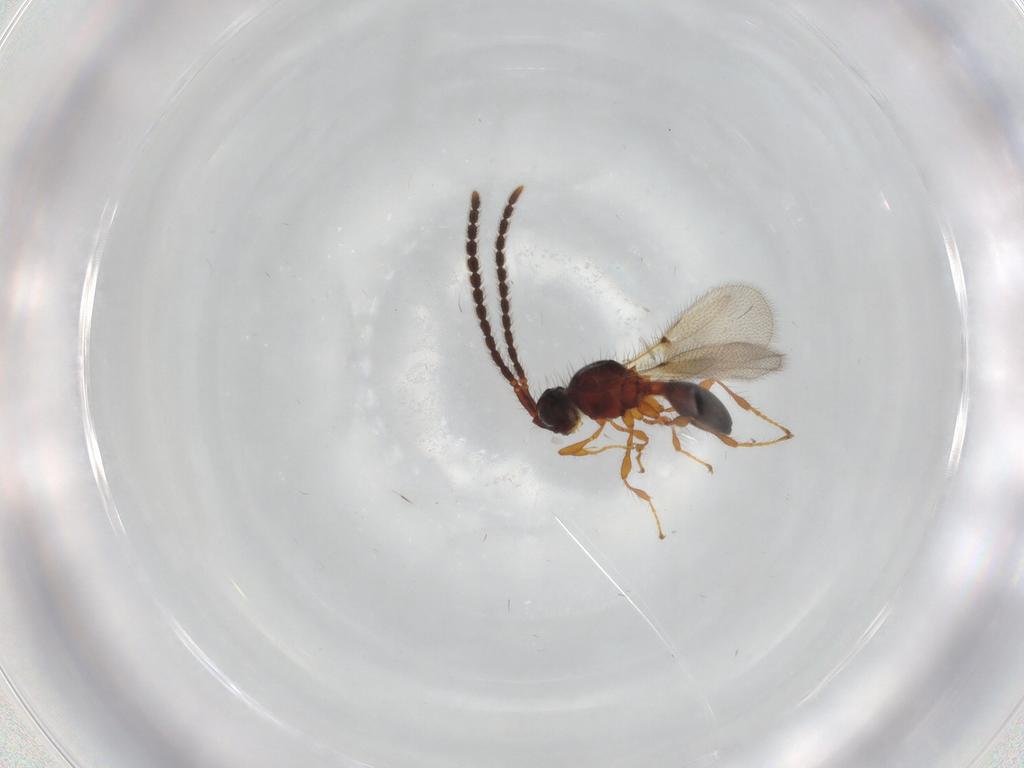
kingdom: Animalia
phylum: Arthropoda
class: Insecta
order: Hymenoptera
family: Diapriidae
